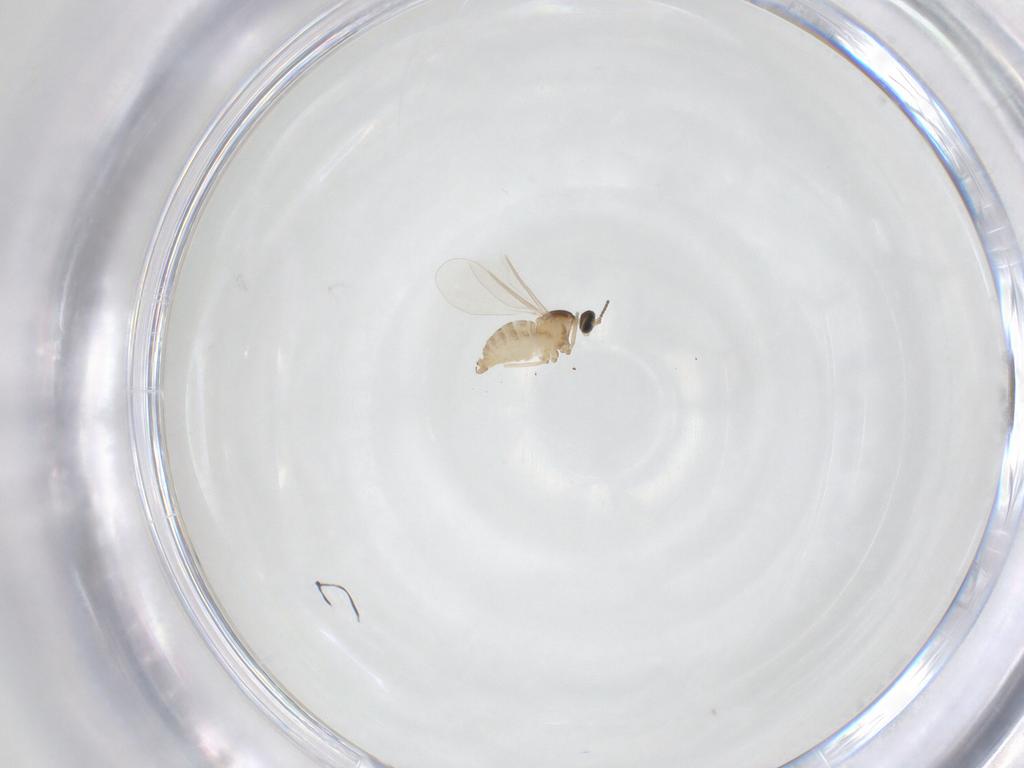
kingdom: Animalia
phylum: Arthropoda
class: Insecta
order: Diptera
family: Cecidomyiidae
